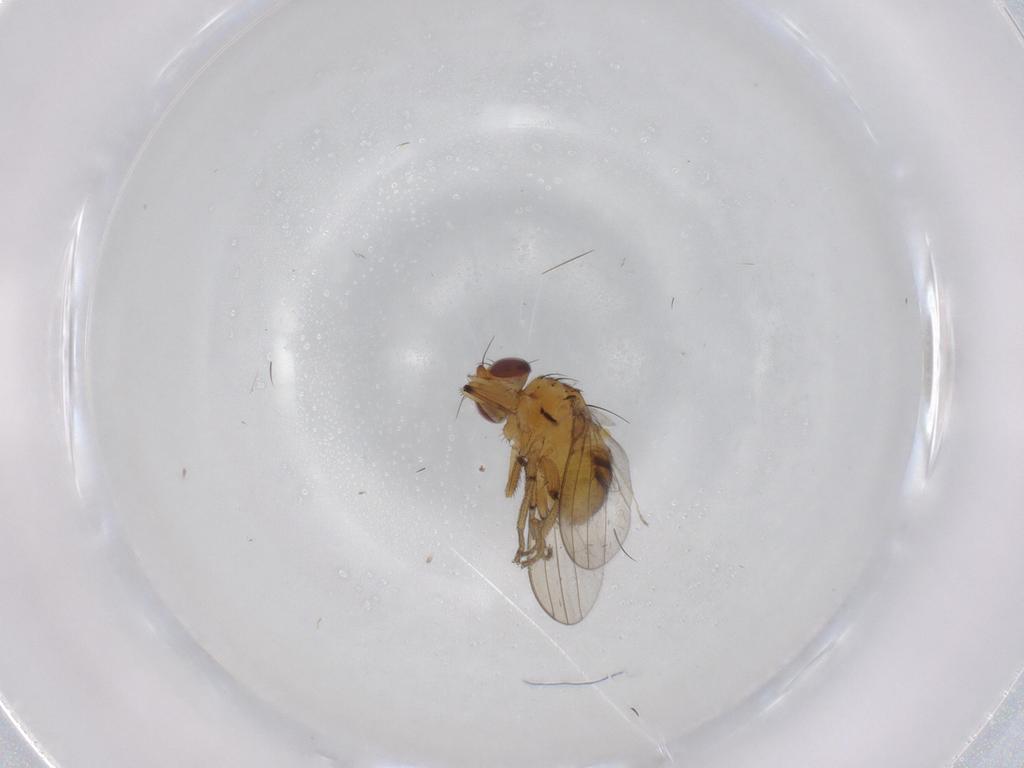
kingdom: Animalia
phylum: Arthropoda
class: Insecta
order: Diptera
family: Milichiidae
